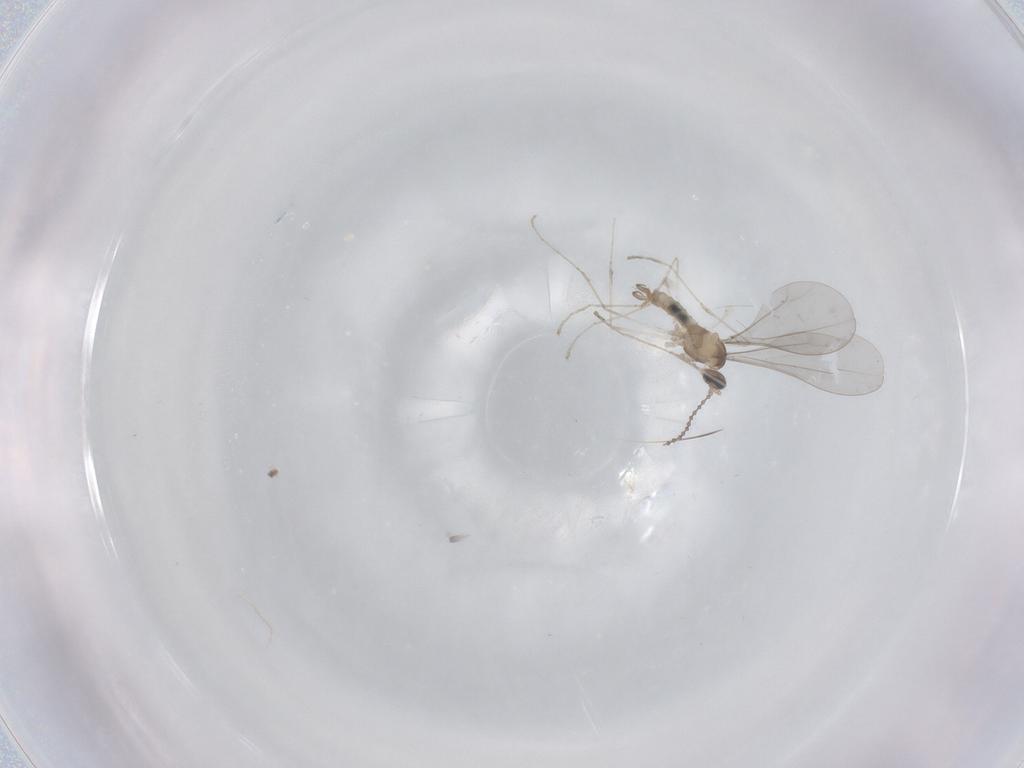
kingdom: Animalia
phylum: Arthropoda
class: Insecta
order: Diptera
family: Cecidomyiidae
